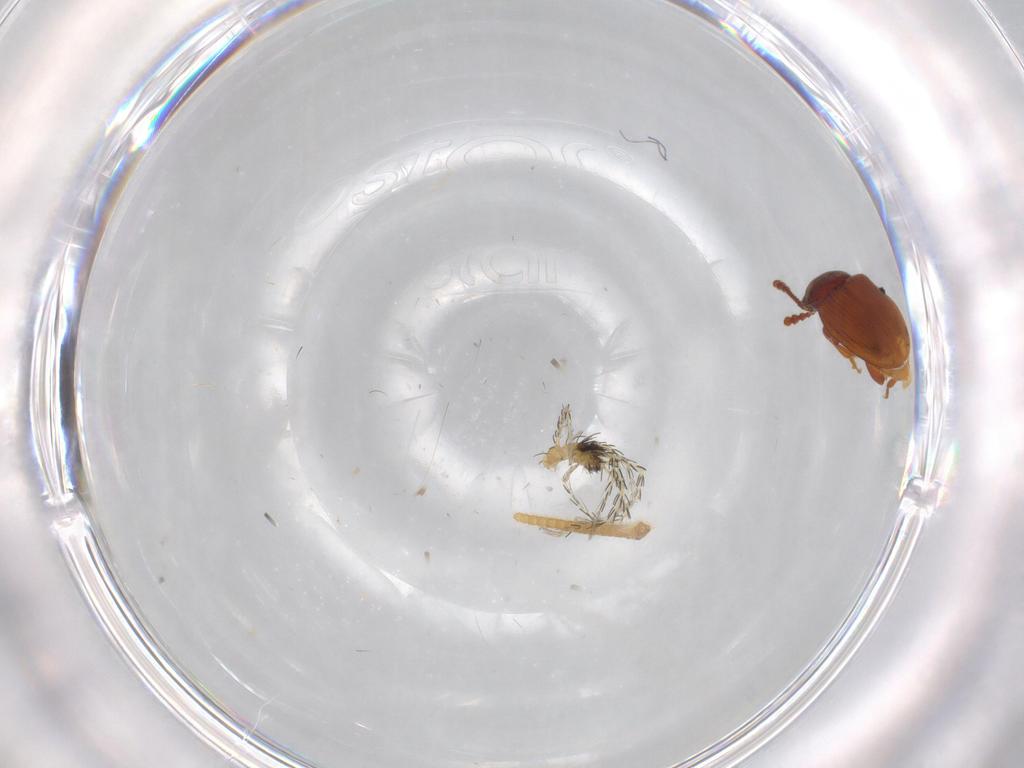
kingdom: Animalia
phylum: Arthropoda
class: Arachnida
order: Trombidiformes
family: Erythraeidae
